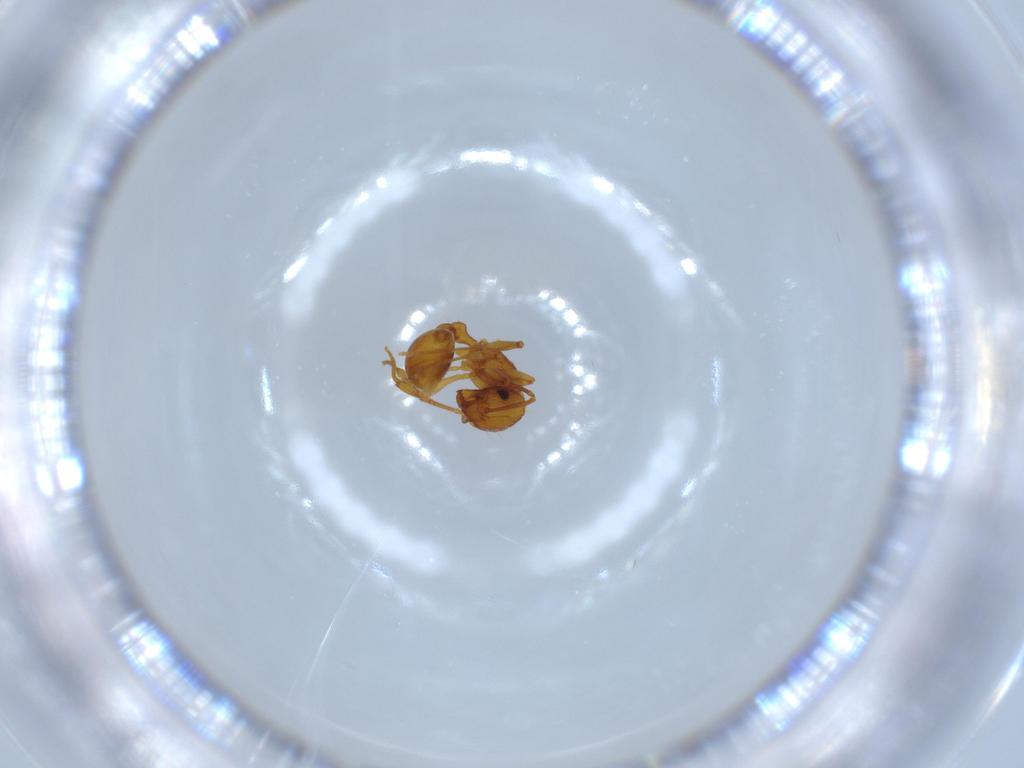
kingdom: Animalia
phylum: Arthropoda
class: Insecta
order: Hymenoptera
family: Formicidae
